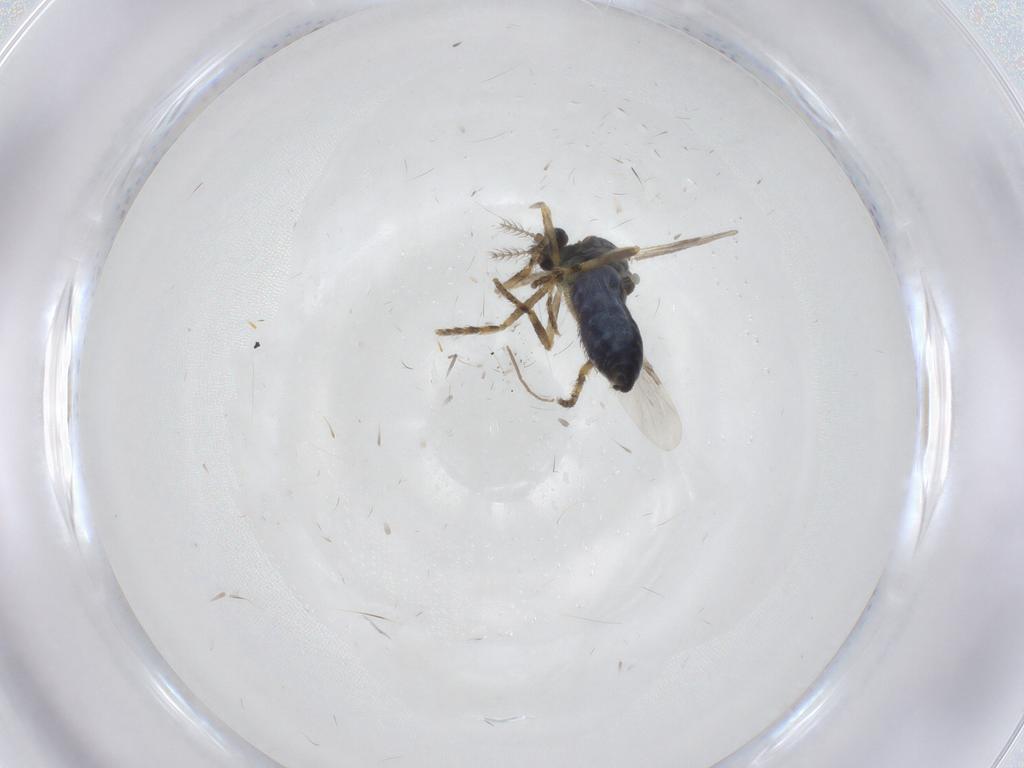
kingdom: Animalia
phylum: Arthropoda
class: Insecta
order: Diptera
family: Ceratopogonidae
